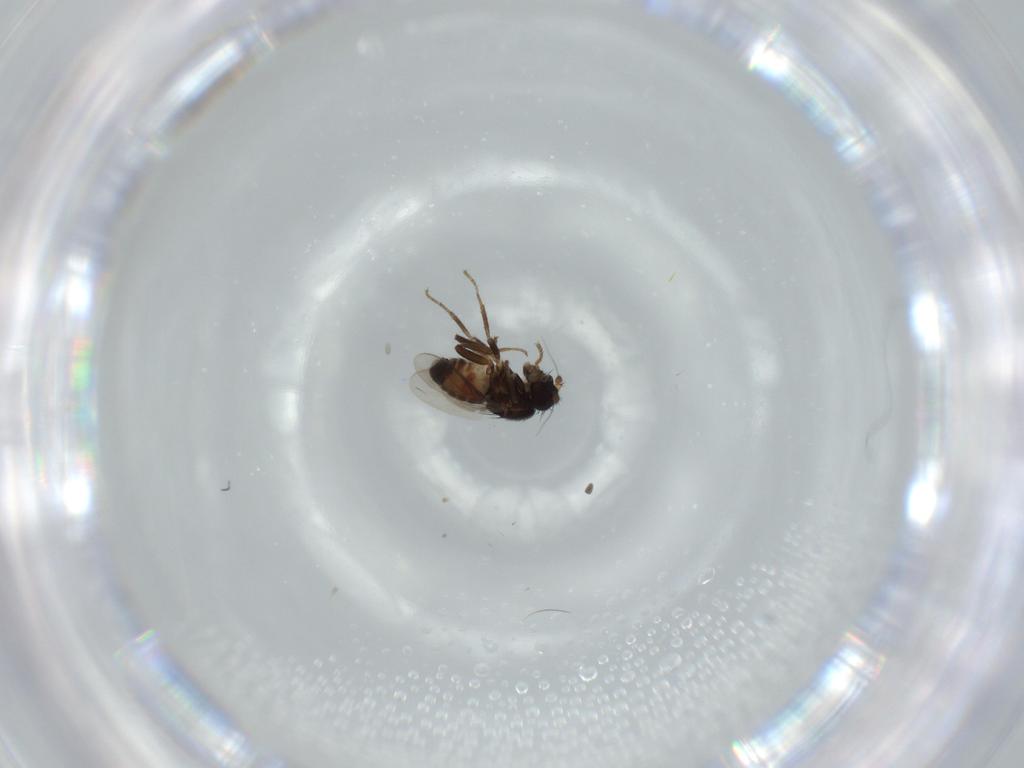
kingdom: Animalia
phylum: Arthropoda
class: Insecta
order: Diptera
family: Sphaeroceridae
